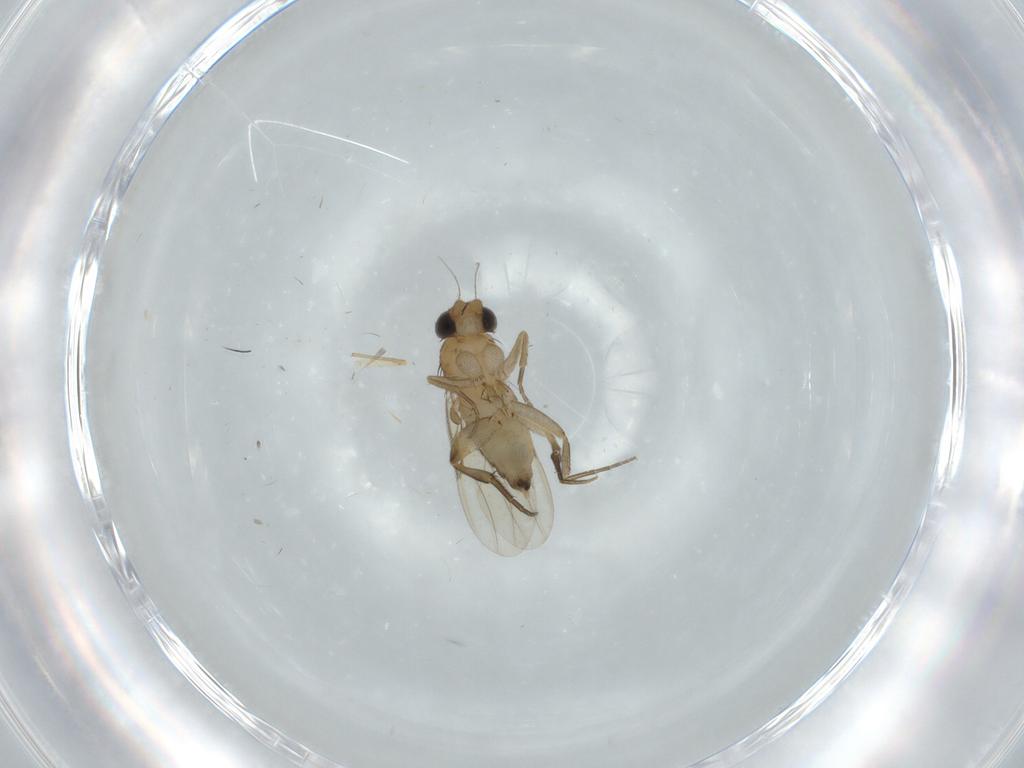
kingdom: Animalia
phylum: Arthropoda
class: Insecta
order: Diptera
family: Phoridae
